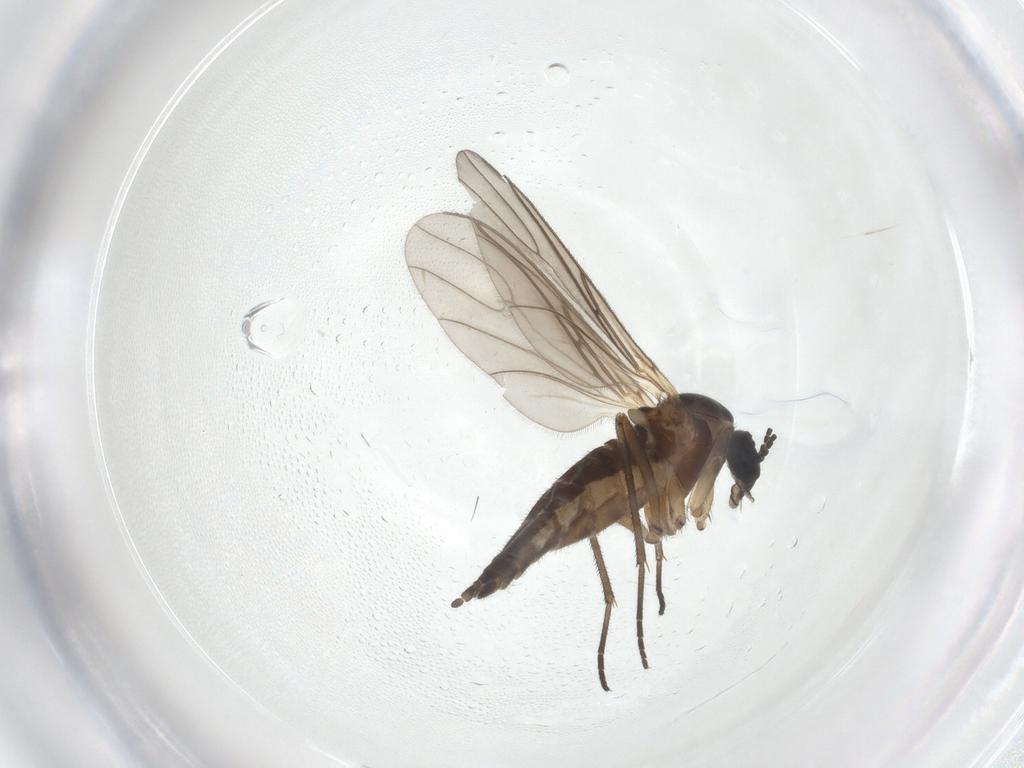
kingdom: Animalia
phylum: Arthropoda
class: Insecta
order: Diptera
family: Sciaridae
